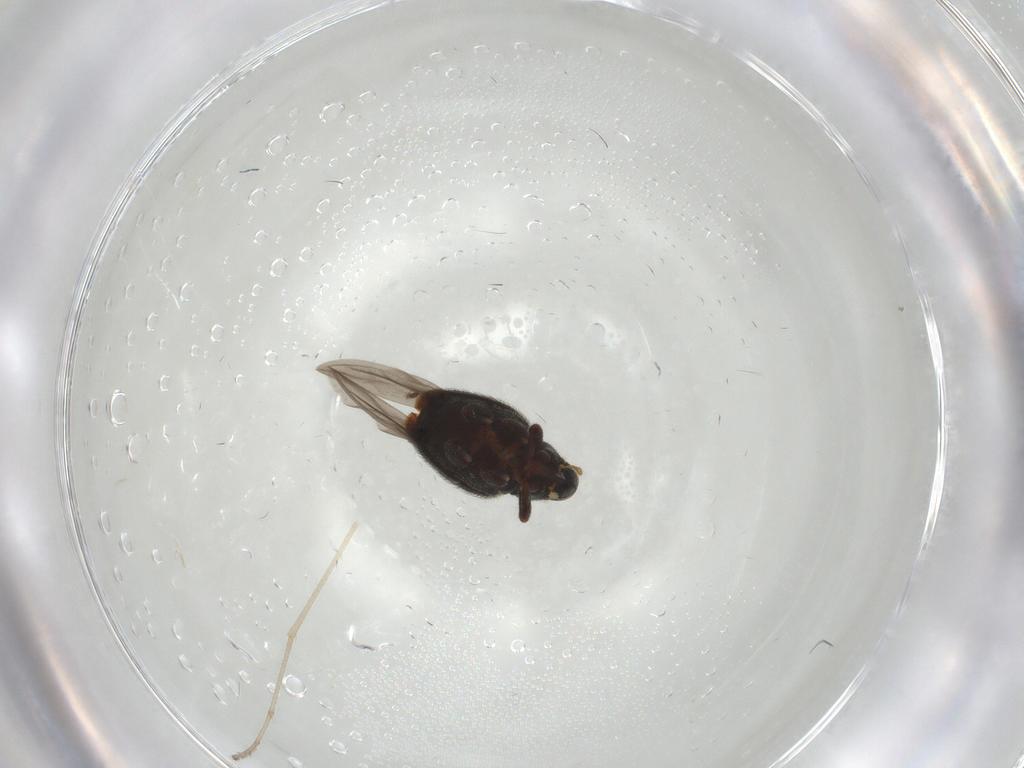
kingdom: Animalia
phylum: Arthropoda
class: Insecta
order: Coleoptera
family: Curculionidae
